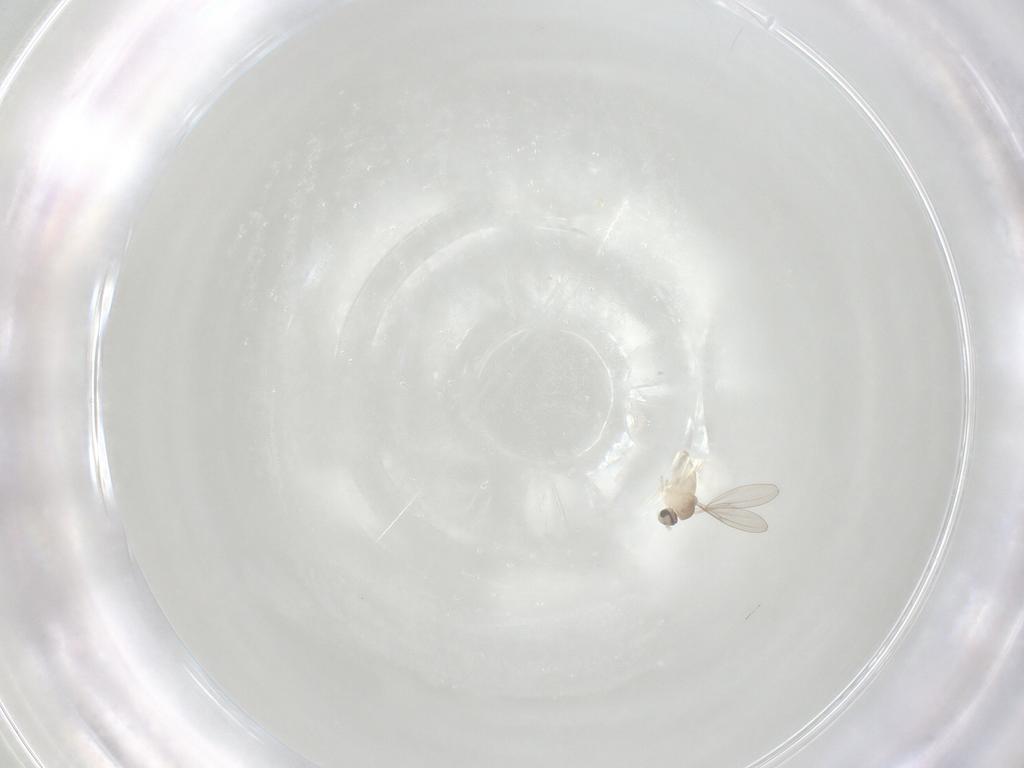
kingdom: Animalia
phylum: Arthropoda
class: Insecta
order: Diptera
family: Cecidomyiidae
